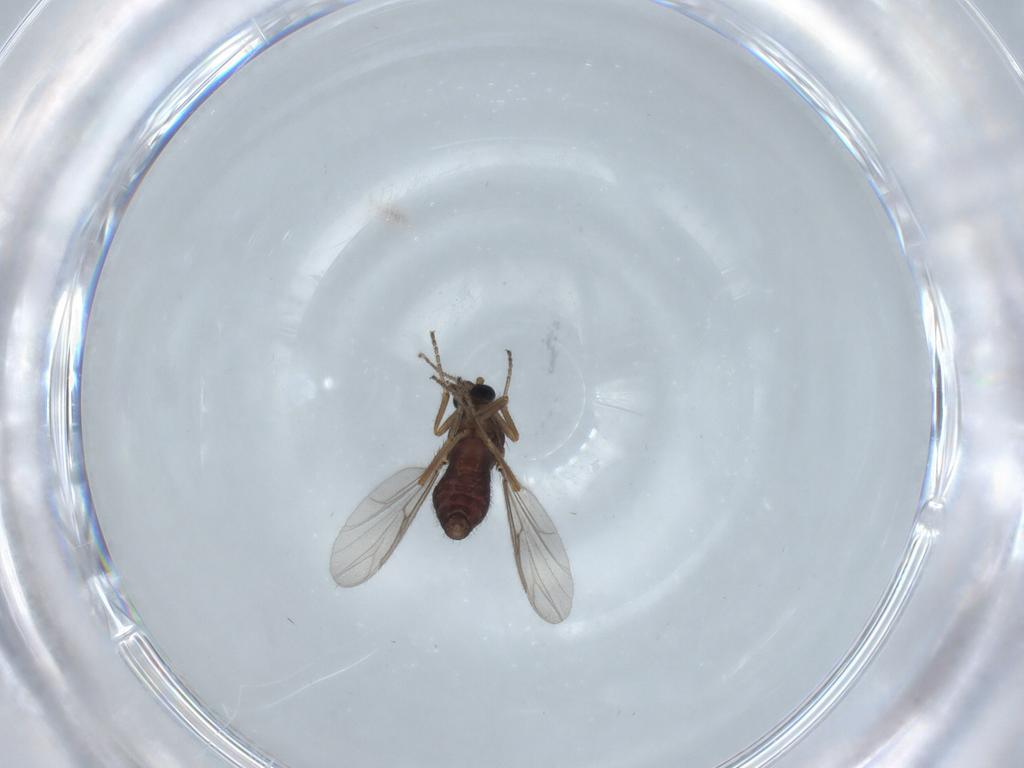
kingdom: Animalia
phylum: Arthropoda
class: Insecta
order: Diptera
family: Ceratopogonidae
